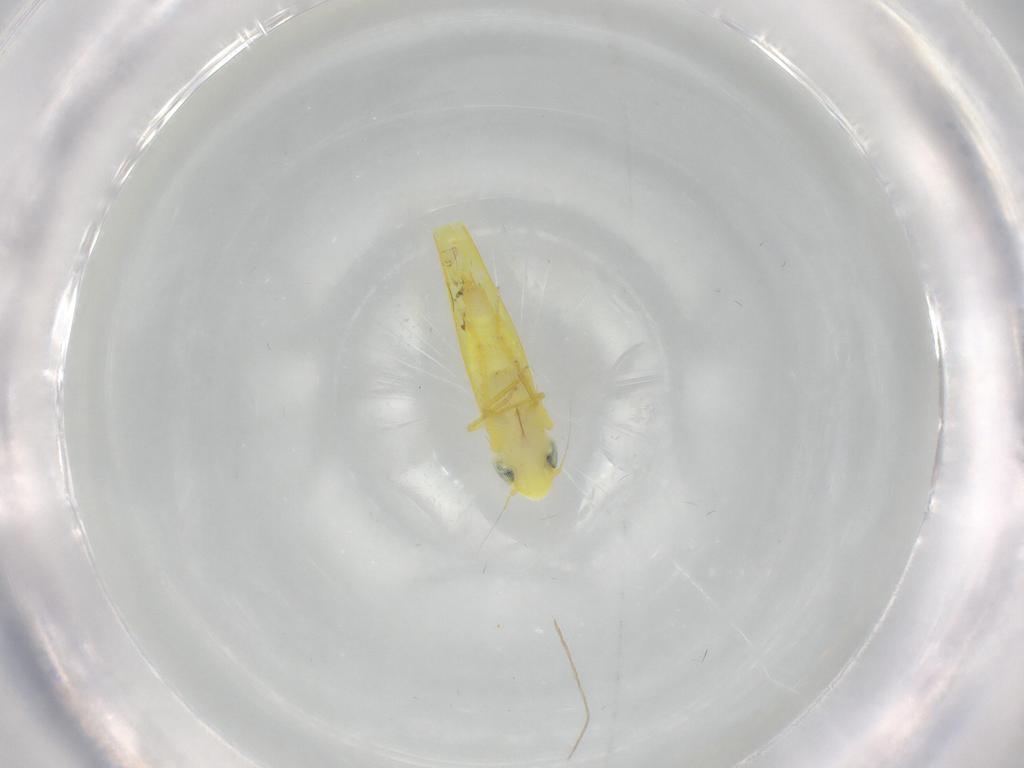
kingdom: Animalia
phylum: Arthropoda
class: Insecta
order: Hemiptera
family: Cicadellidae
